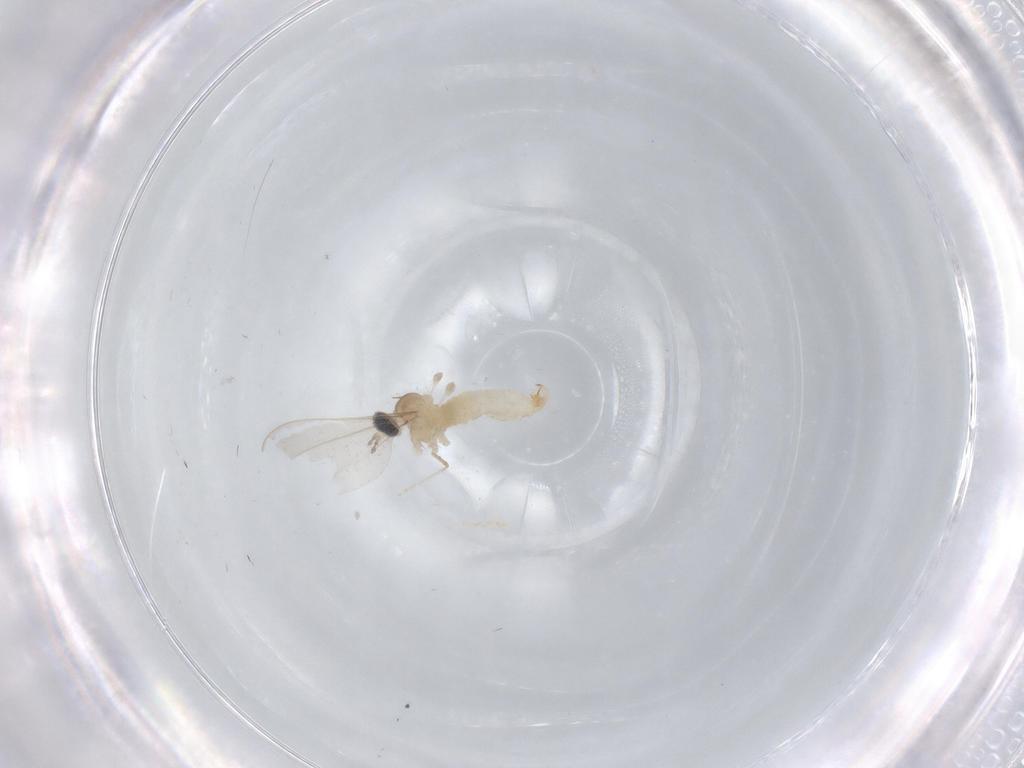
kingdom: Animalia
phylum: Arthropoda
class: Insecta
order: Diptera
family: Cecidomyiidae
